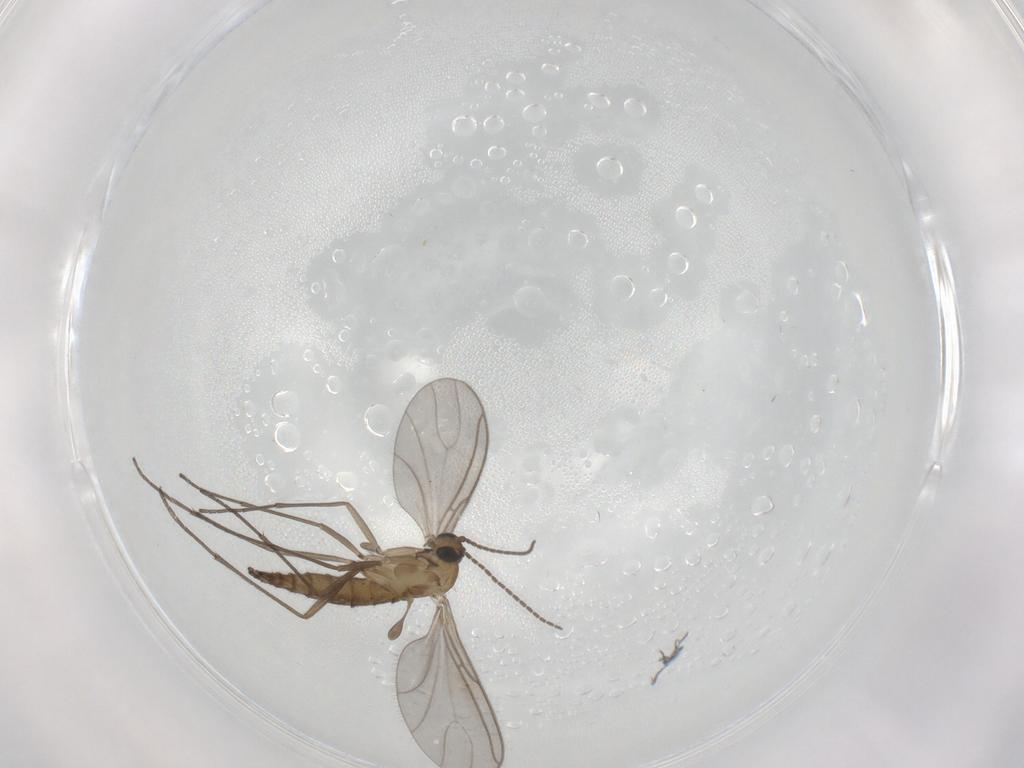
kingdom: Animalia
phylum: Arthropoda
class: Insecta
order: Diptera
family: Sciaridae
